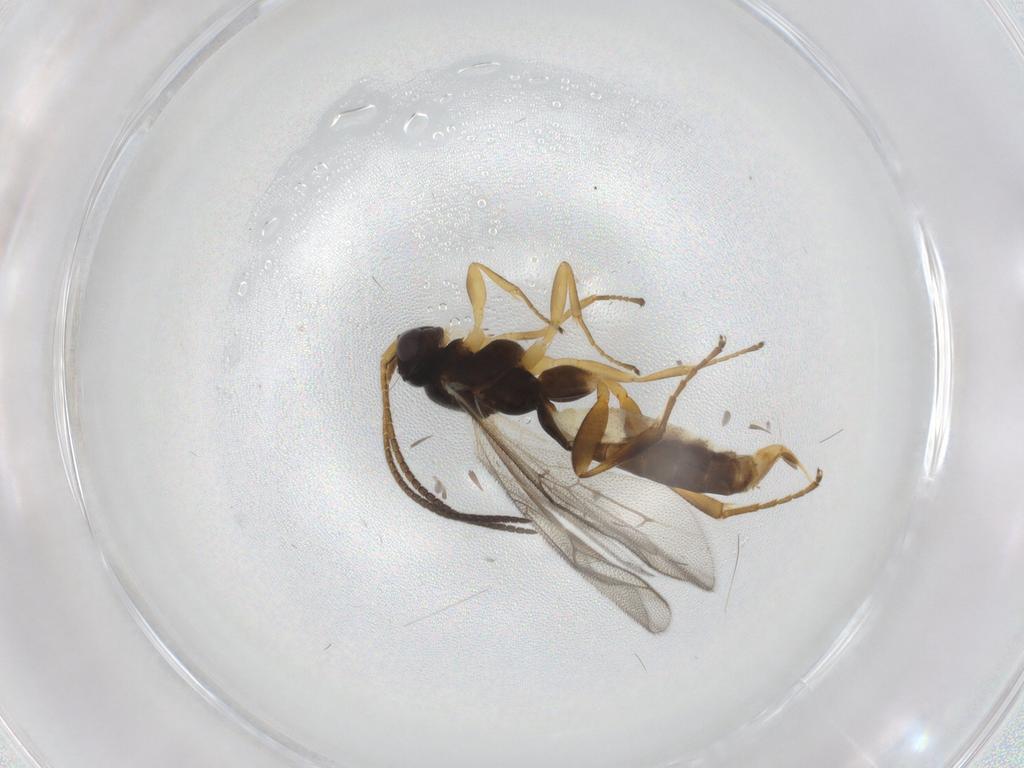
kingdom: Animalia
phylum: Arthropoda
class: Insecta
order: Hymenoptera
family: Ichneumonidae
